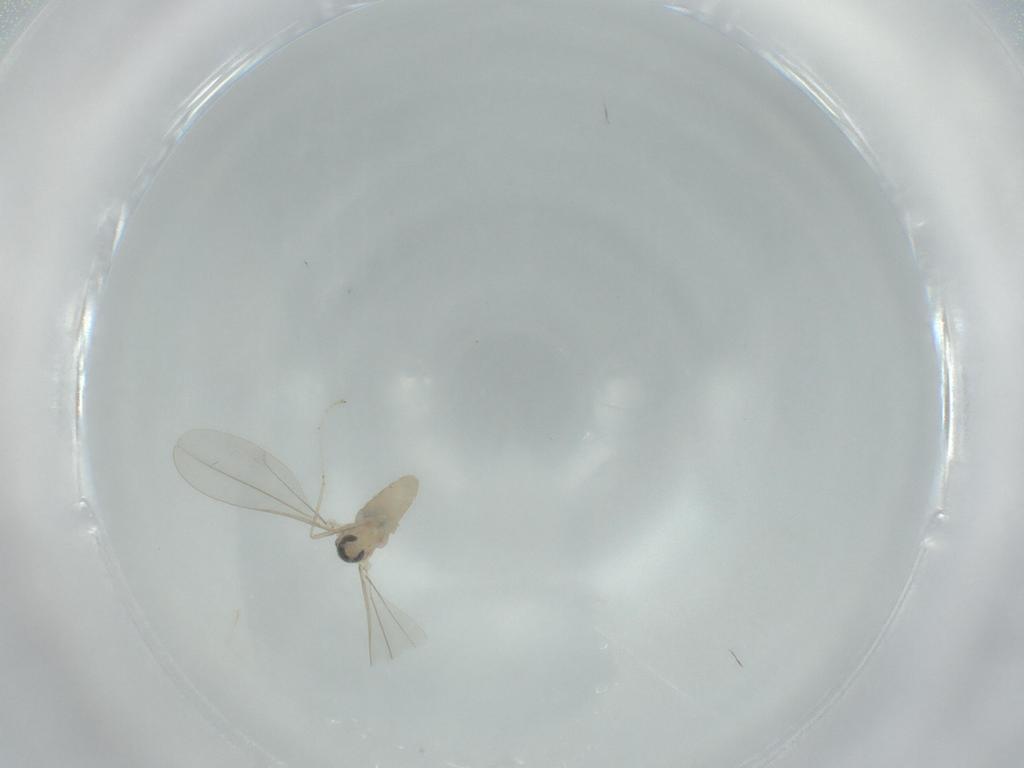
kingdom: Animalia
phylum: Arthropoda
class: Insecta
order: Diptera
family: Cecidomyiidae
